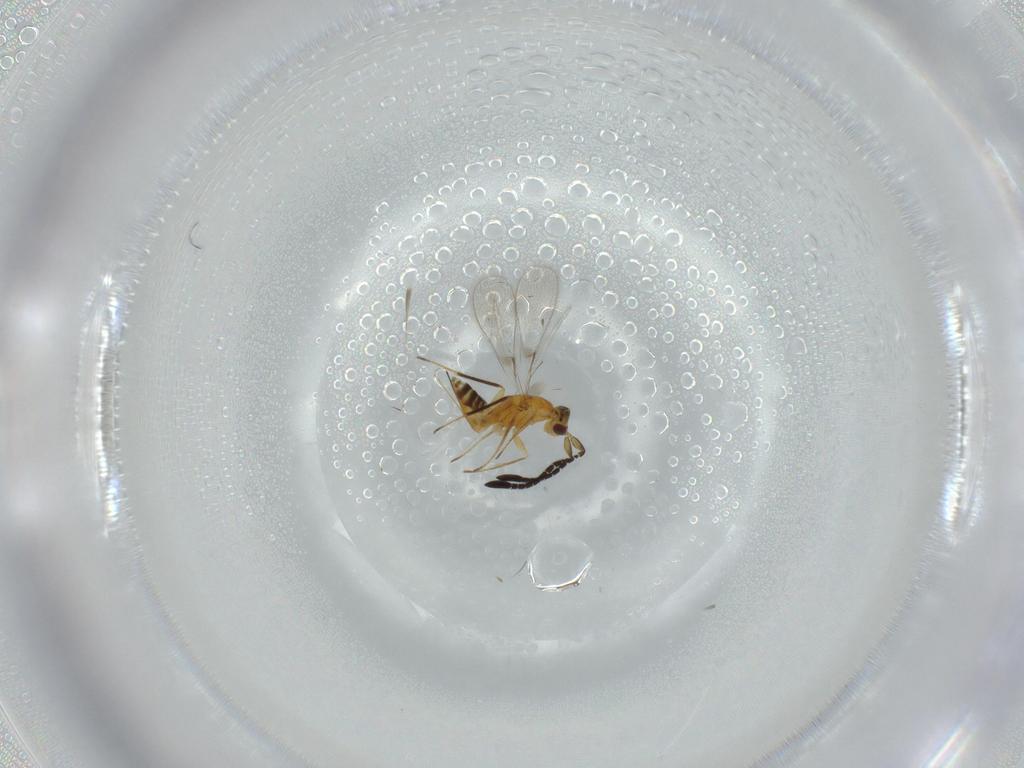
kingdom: Animalia
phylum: Arthropoda
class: Insecta
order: Hymenoptera
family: Mymaridae
